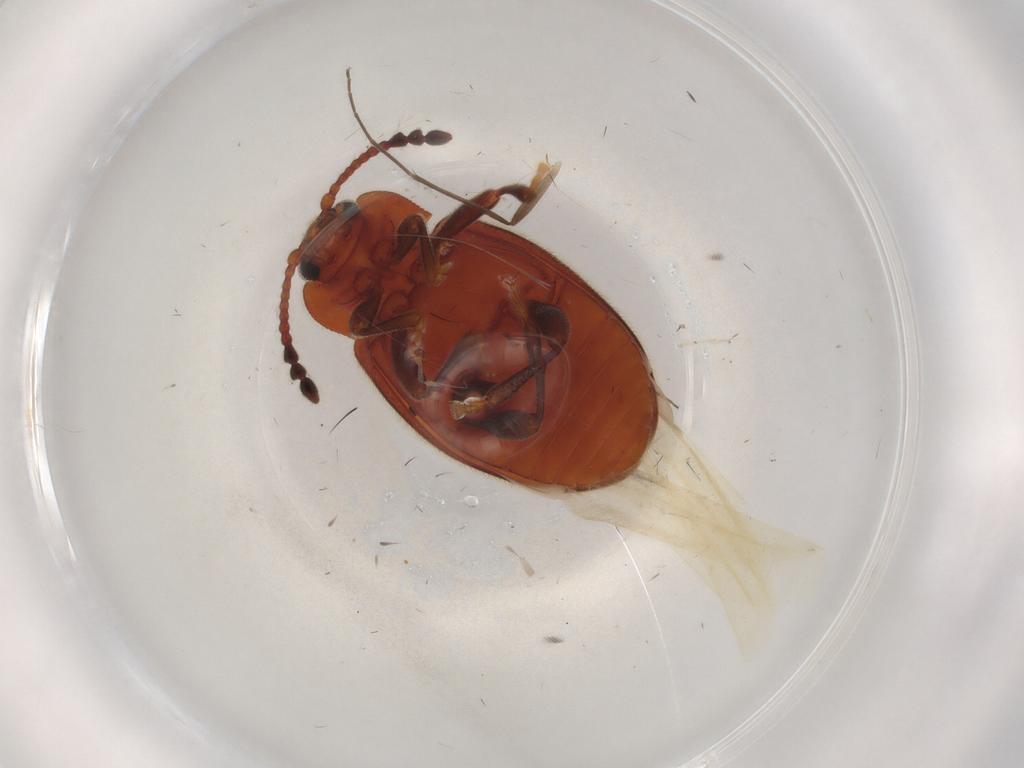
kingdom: Animalia
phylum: Arthropoda
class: Insecta
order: Coleoptera
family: Endomychidae
